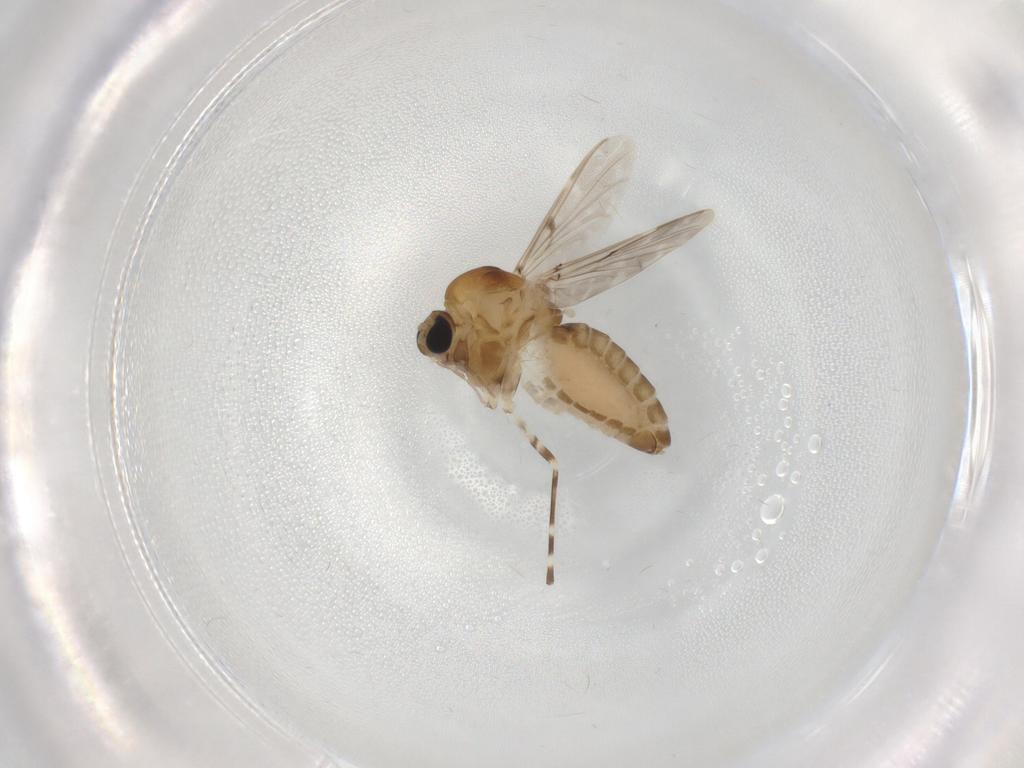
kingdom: Animalia
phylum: Arthropoda
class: Insecta
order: Diptera
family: Chironomidae
